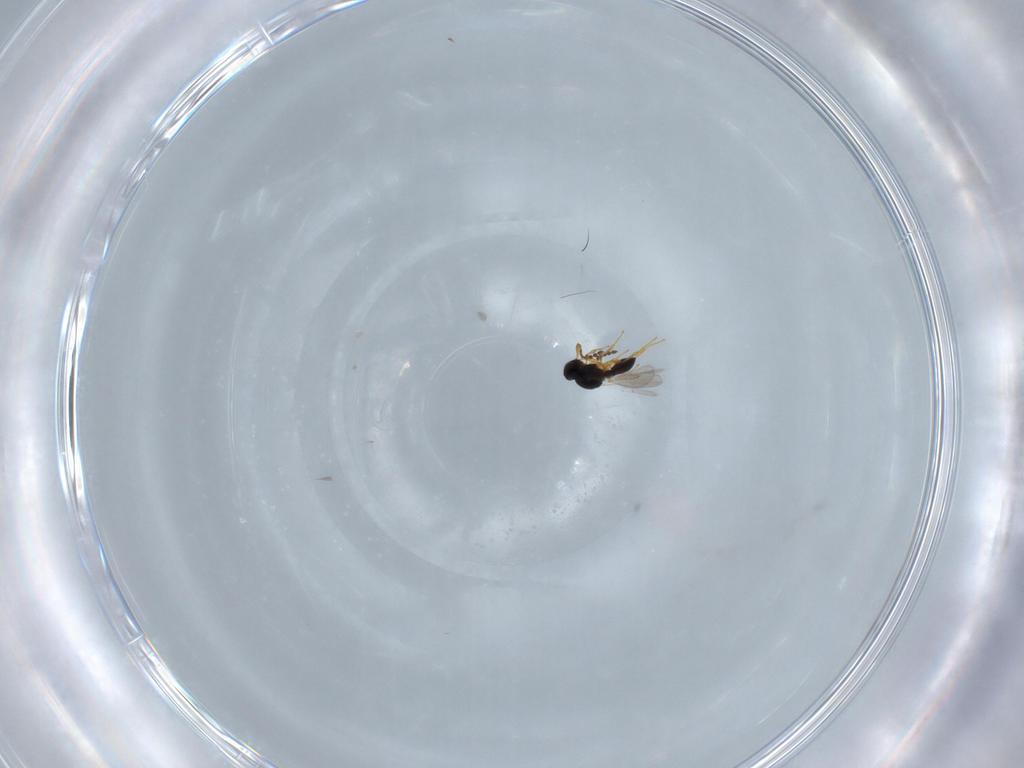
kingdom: Animalia
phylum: Arthropoda
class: Insecta
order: Hymenoptera
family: Platygastridae
